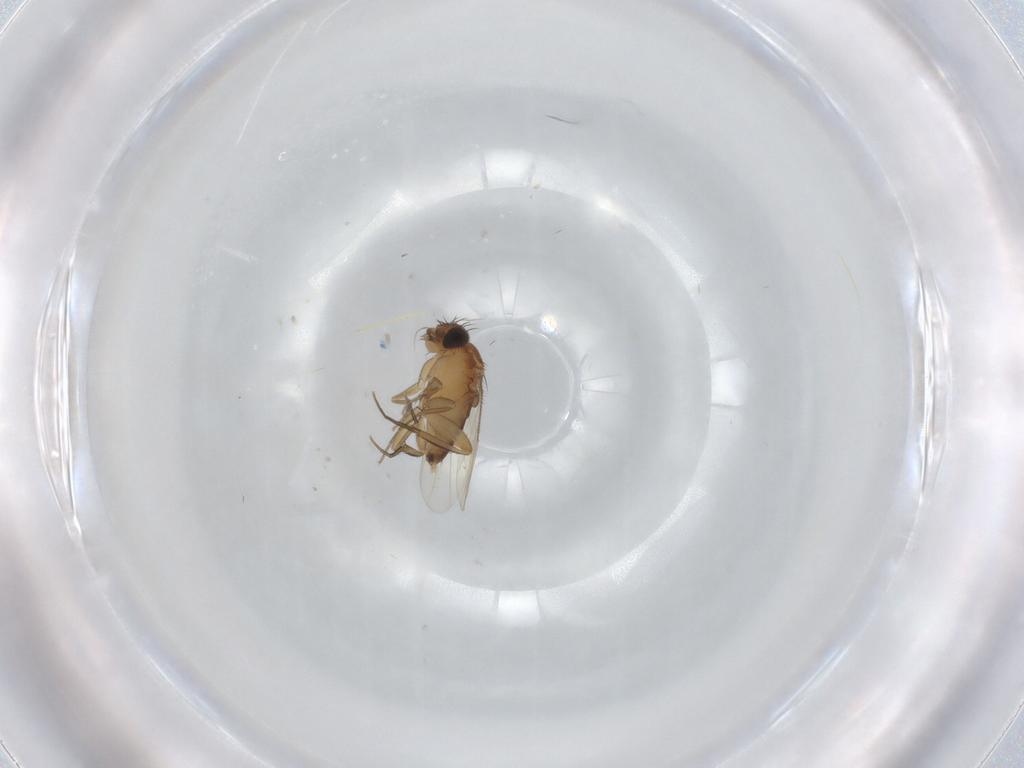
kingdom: Animalia
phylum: Arthropoda
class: Insecta
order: Diptera
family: Phoridae
